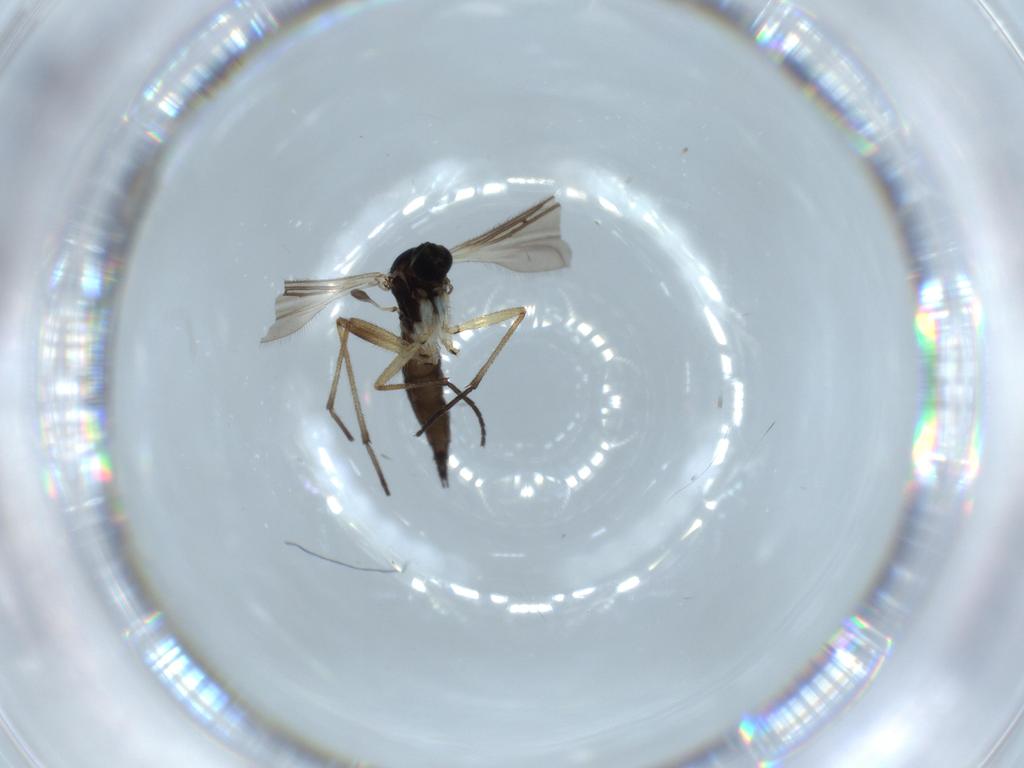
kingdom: Animalia
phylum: Arthropoda
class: Insecta
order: Diptera
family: Sciaridae
